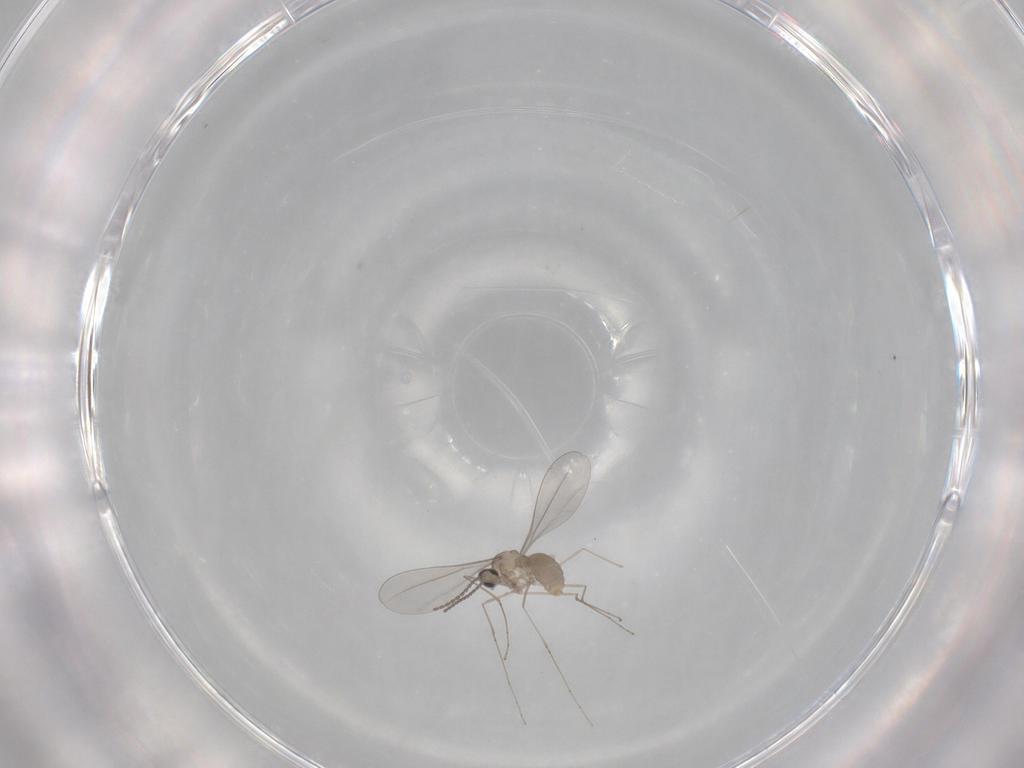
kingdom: Animalia
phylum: Arthropoda
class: Insecta
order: Diptera
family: Cecidomyiidae
